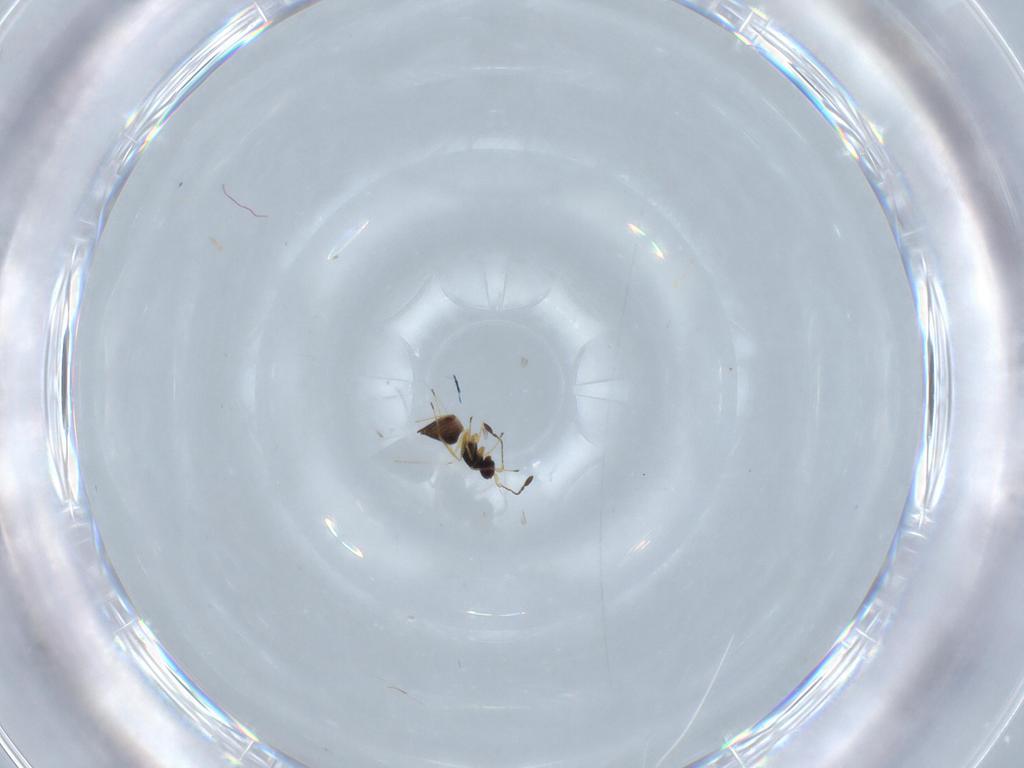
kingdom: Animalia
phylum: Arthropoda
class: Insecta
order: Hymenoptera
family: Mymaridae
